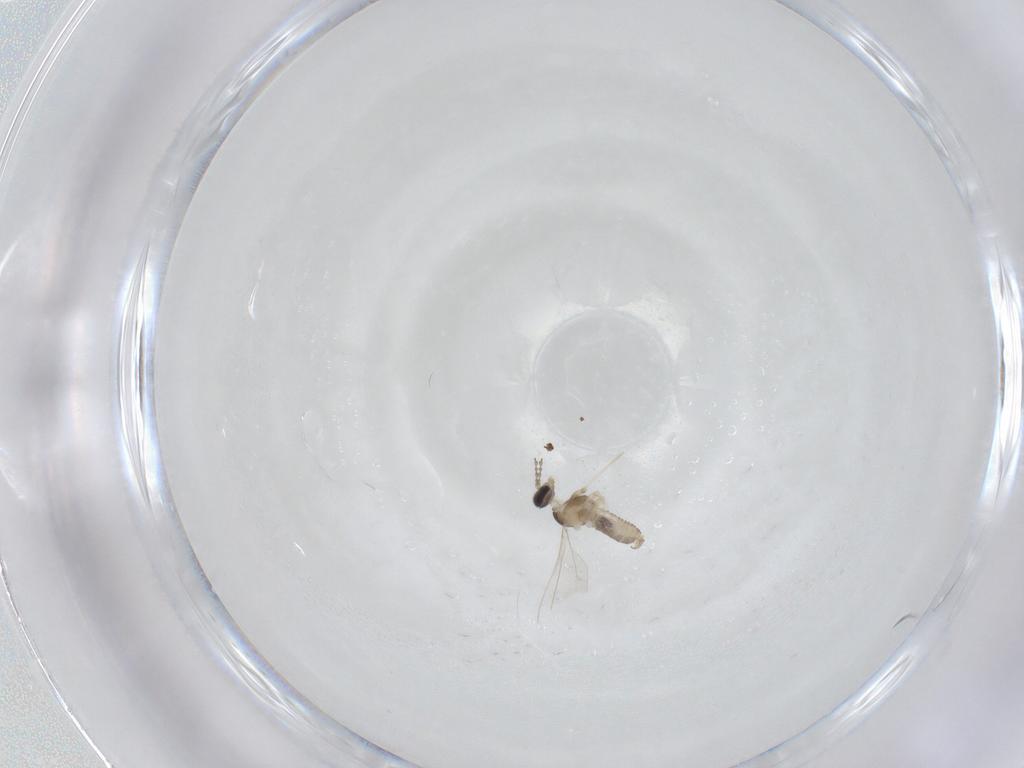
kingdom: Animalia
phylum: Arthropoda
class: Insecta
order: Diptera
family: Cecidomyiidae
